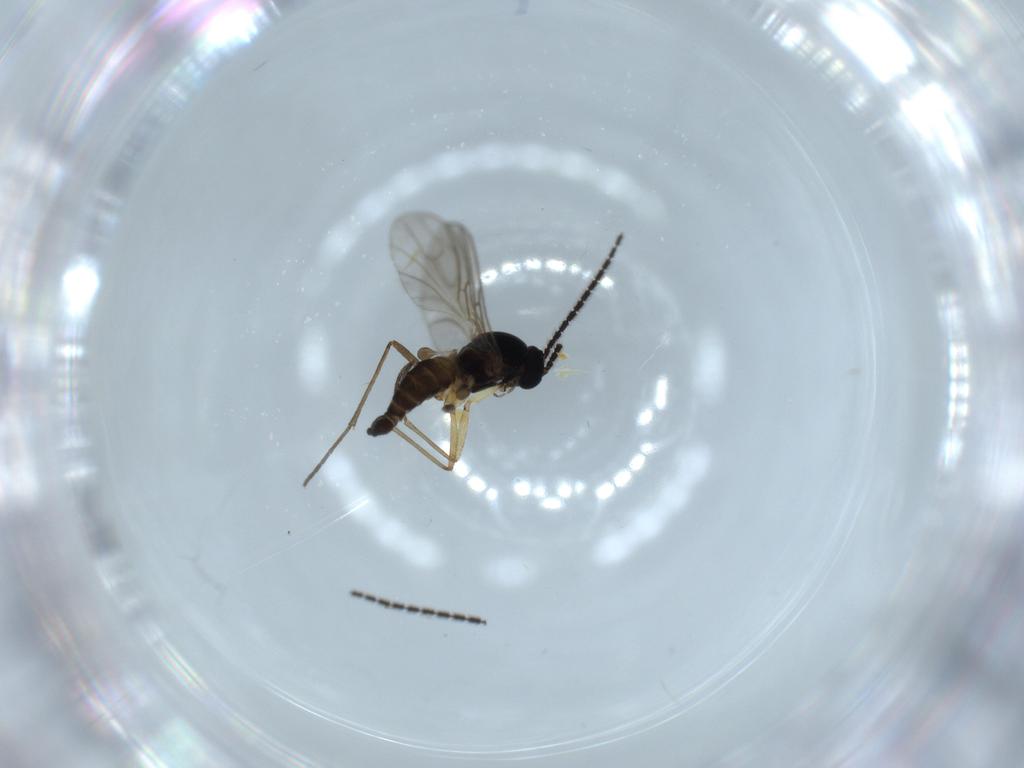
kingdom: Animalia
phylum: Arthropoda
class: Insecta
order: Diptera
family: Sciaridae
